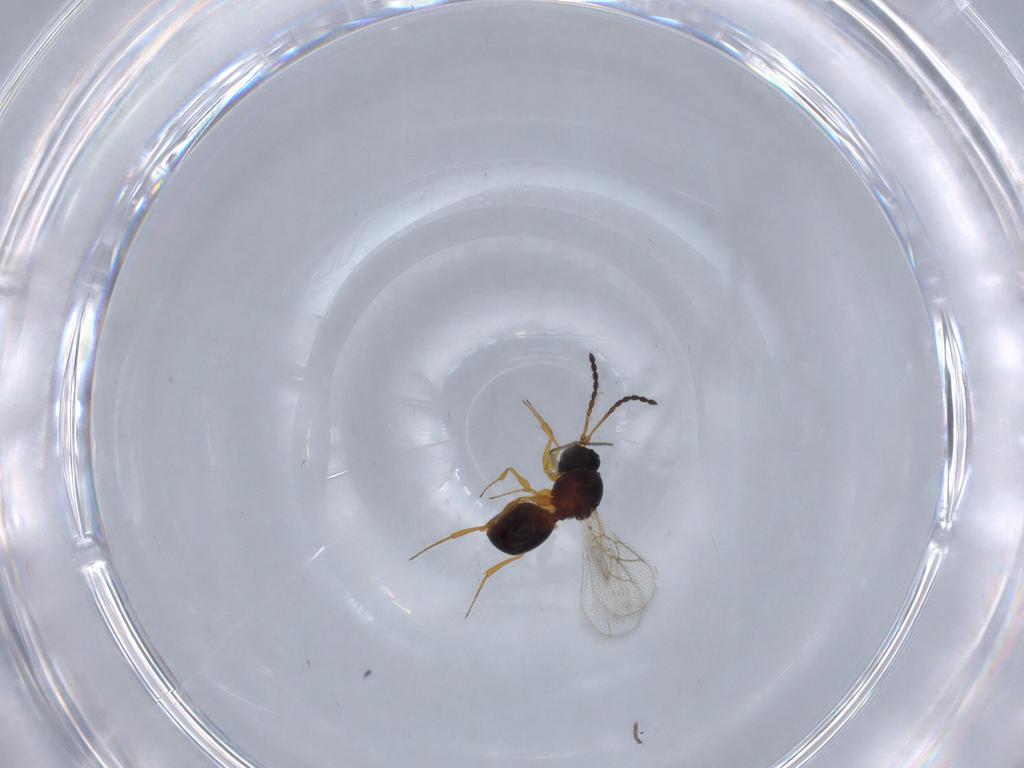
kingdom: Animalia
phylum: Arthropoda
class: Insecta
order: Hymenoptera
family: Figitidae
